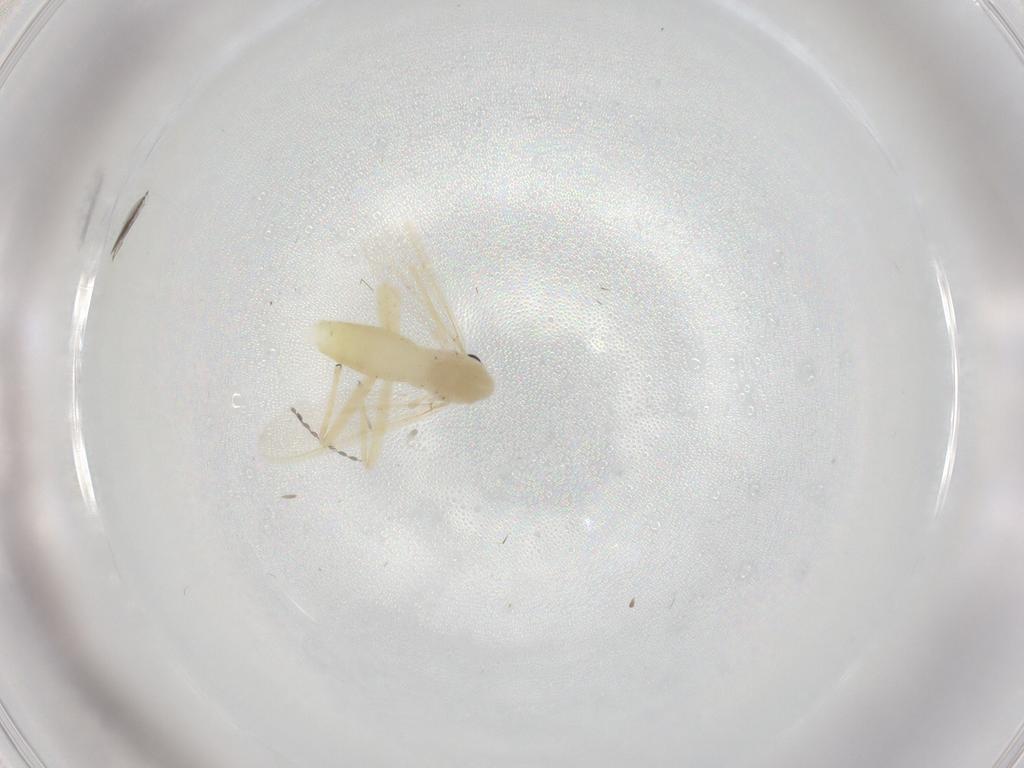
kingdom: Animalia
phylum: Arthropoda
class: Insecta
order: Diptera
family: Chironomidae
